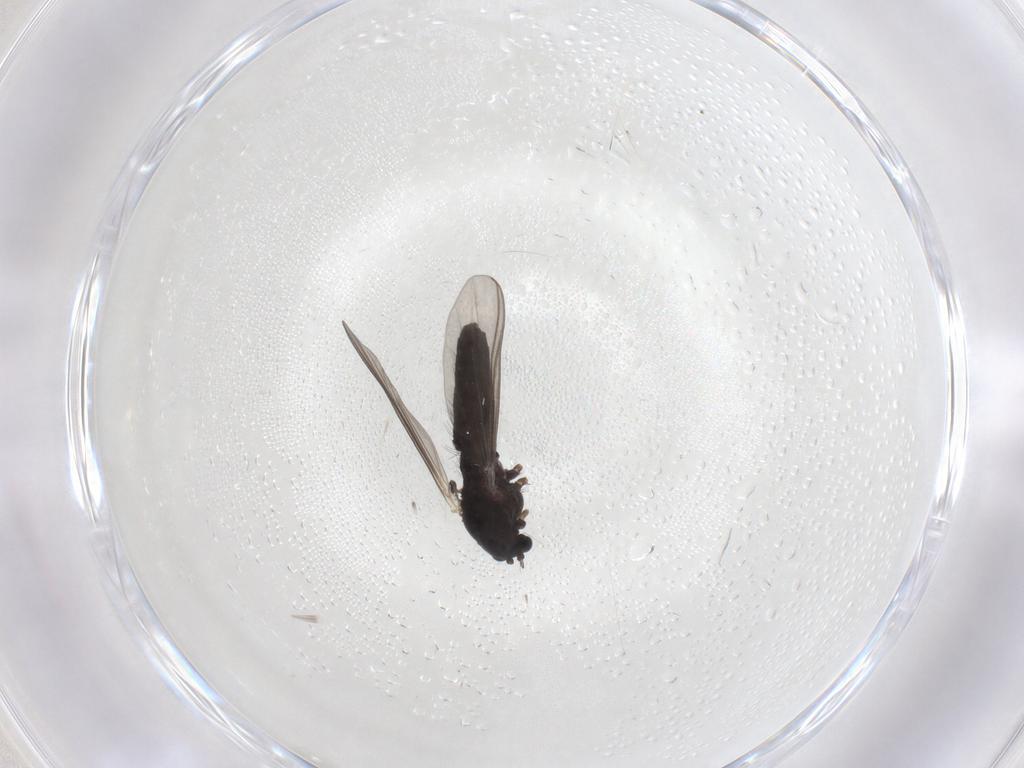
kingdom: Animalia
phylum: Arthropoda
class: Insecta
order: Diptera
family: Chironomidae
